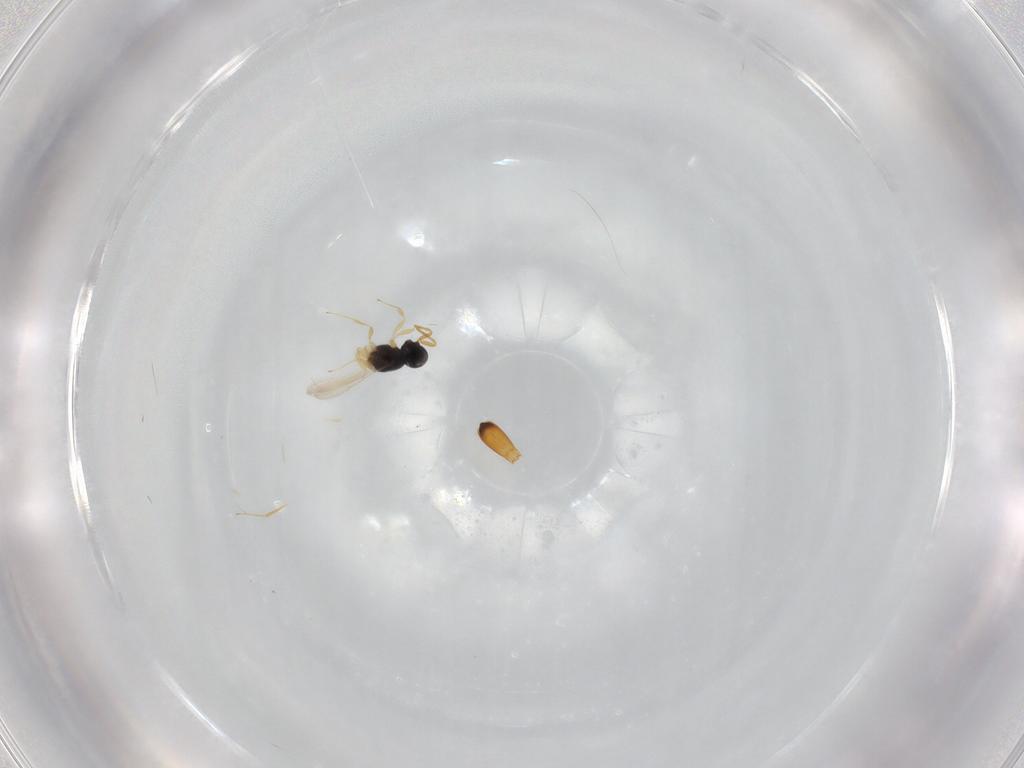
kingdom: Animalia
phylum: Arthropoda
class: Insecta
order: Hymenoptera
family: Scelionidae
